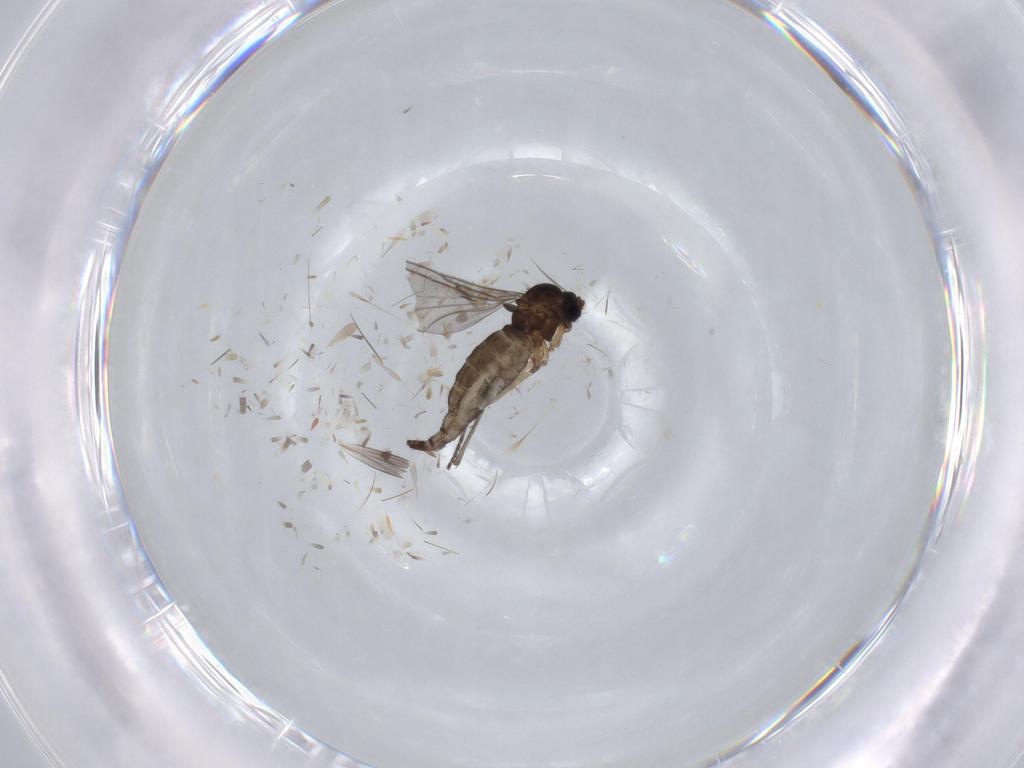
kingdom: Animalia
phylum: Arthropoda
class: Insecta
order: Diptera
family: Sciaridae
